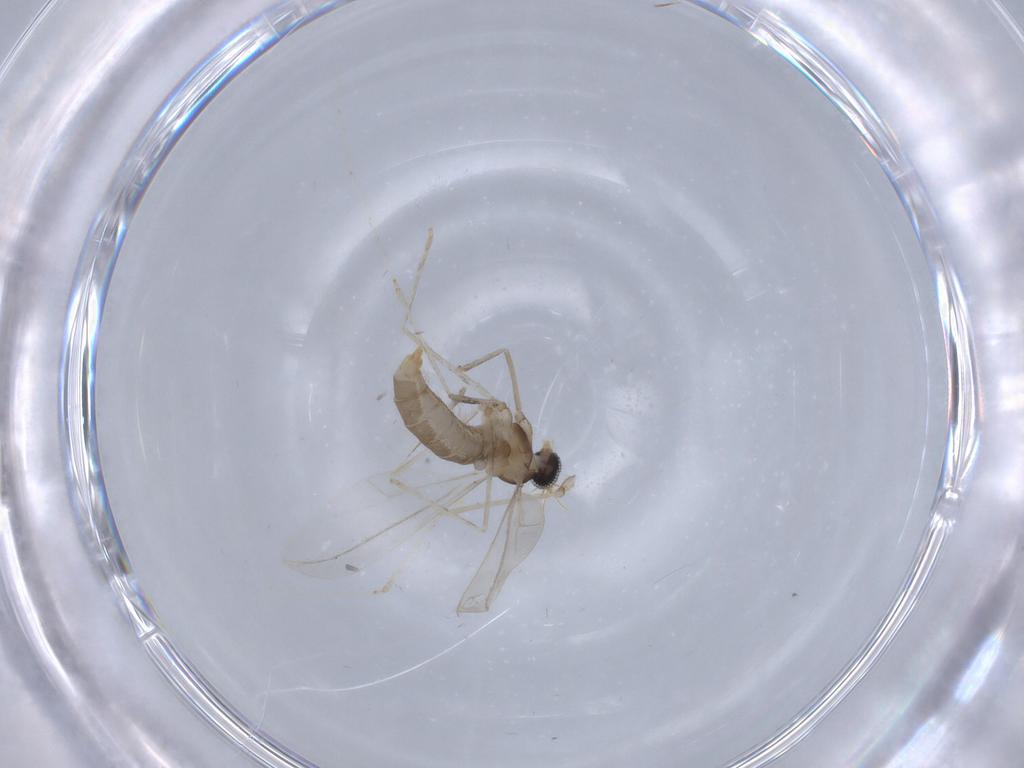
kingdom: Animalia
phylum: Arthropoda
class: Insecta
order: Diptera
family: Cecidomyiidae
